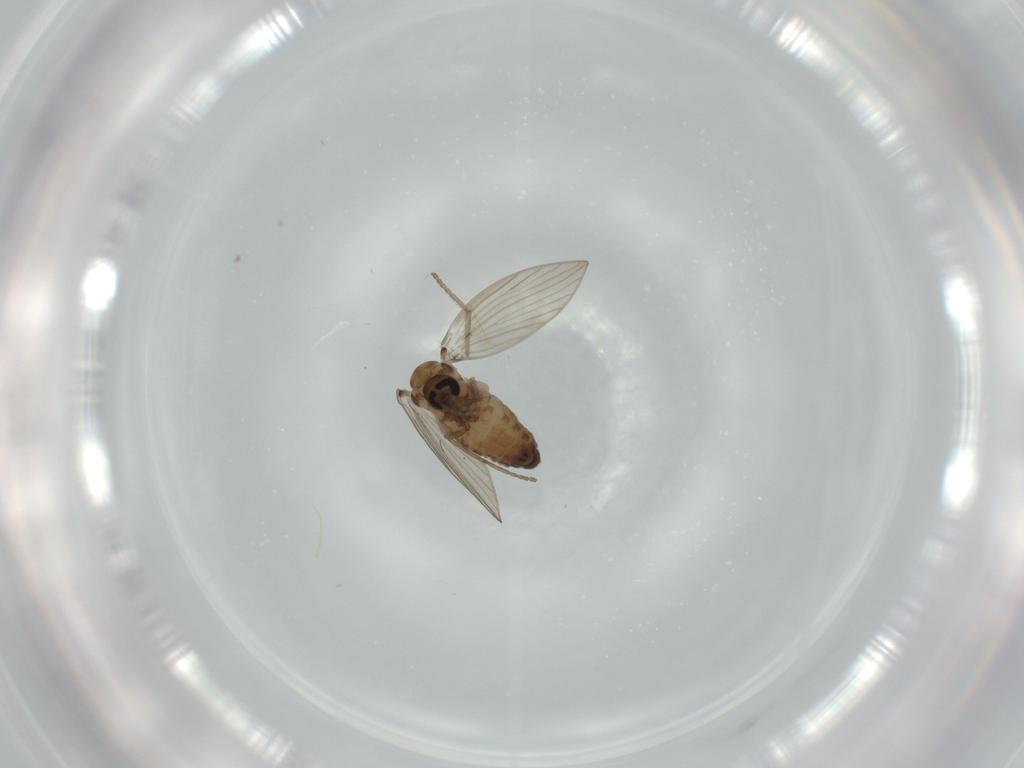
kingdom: Animalia
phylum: Arthropoda
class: Insecta
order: Diptera
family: Psychodidae
